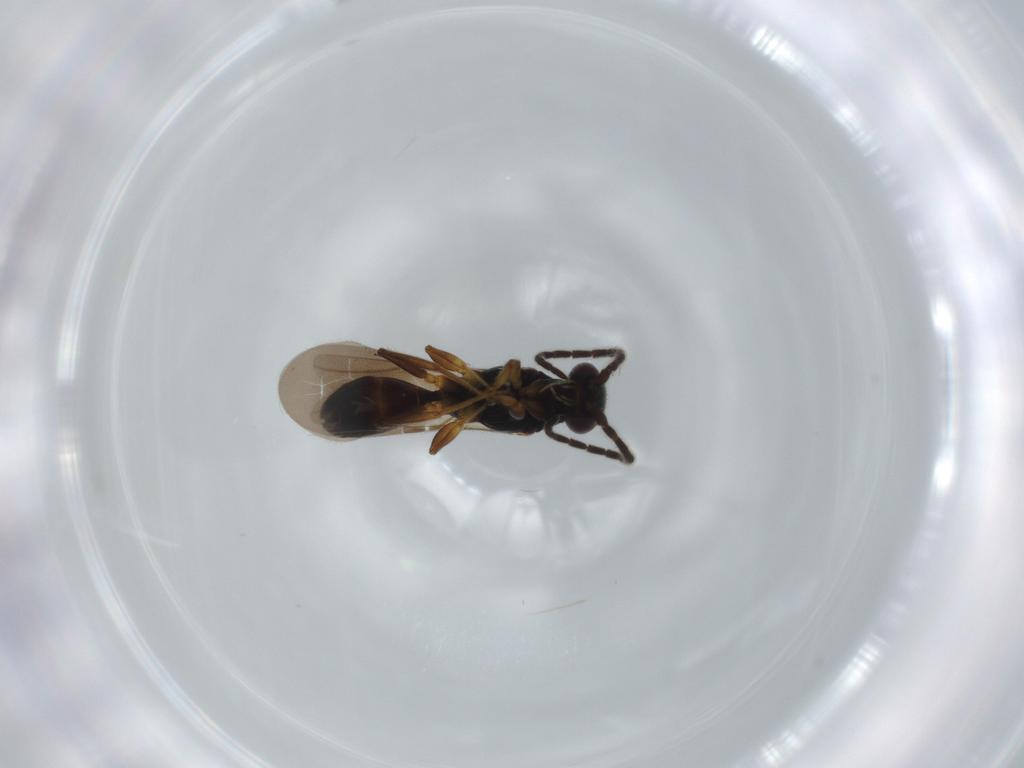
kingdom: Animalia
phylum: Arthropoda
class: Insecta
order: Hymenoptera
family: Bethylidae
